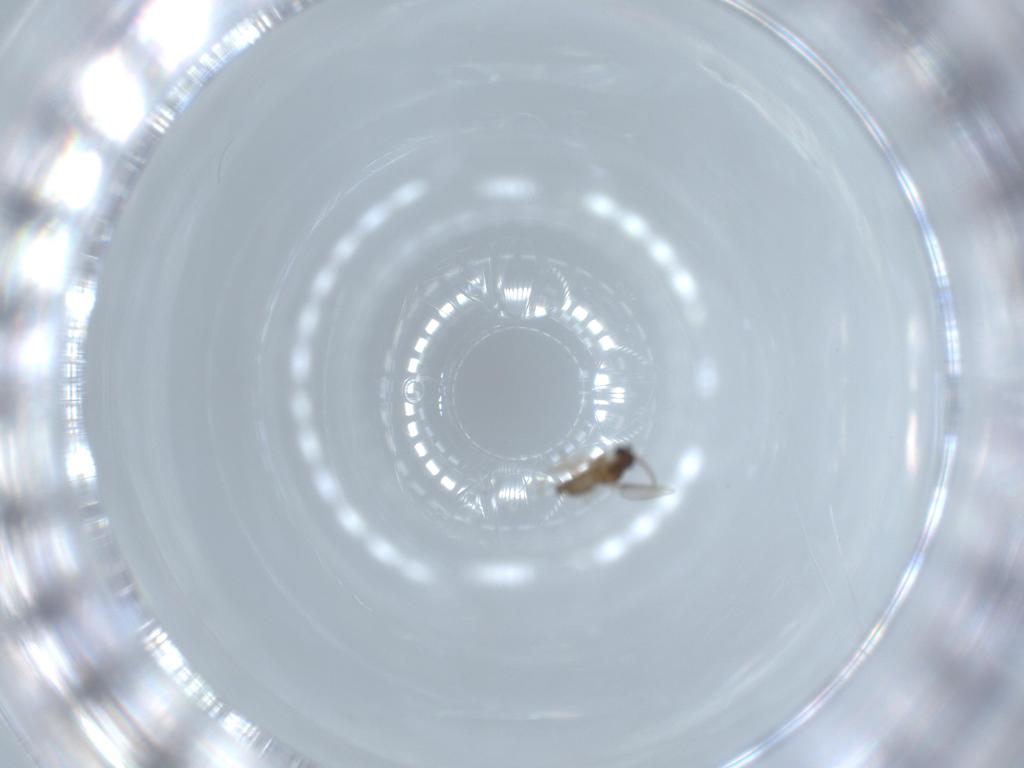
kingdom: Animalia
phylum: Arthropoda
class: Insecta
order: Diptera
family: Cecidomyiidae
